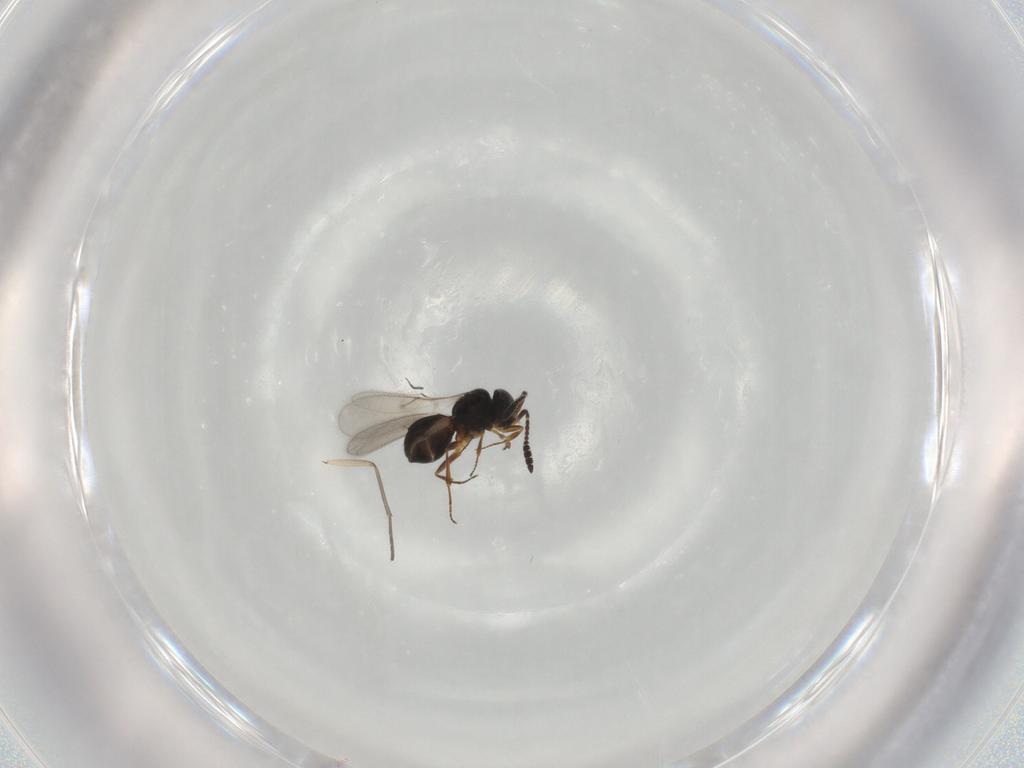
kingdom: Animalia
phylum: Arthropoda
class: Insecta
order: Hymenoptera
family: Scelionidae
